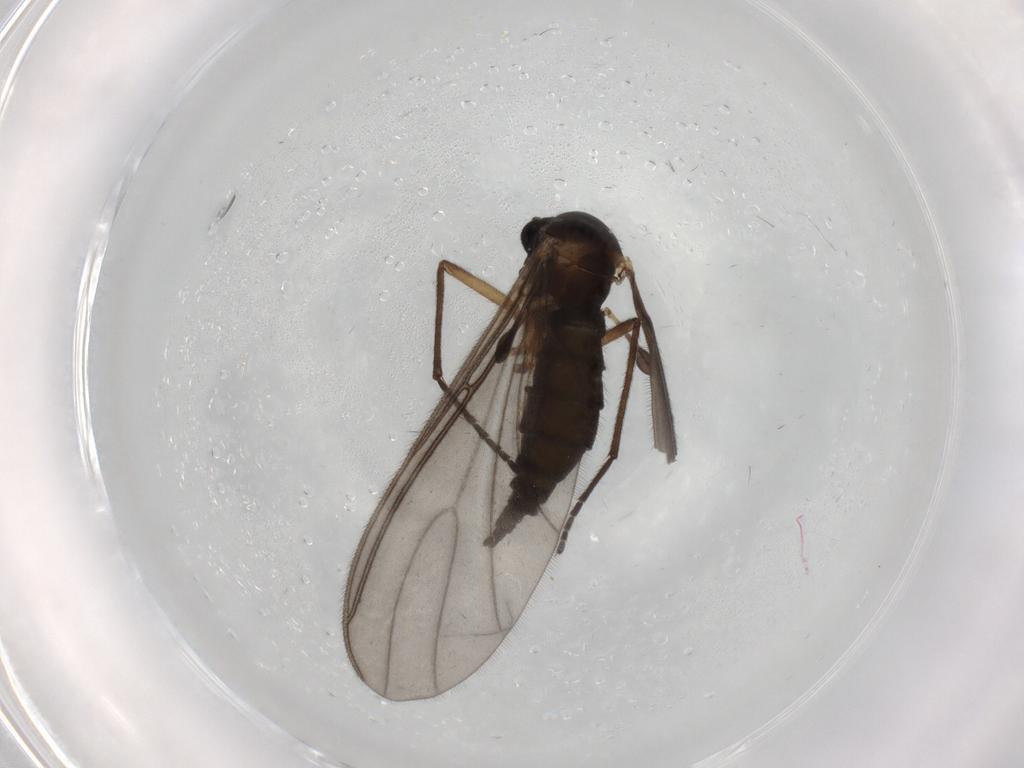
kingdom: Animalia
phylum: Arthropoda
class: Insecta
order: Diptera
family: Sciaridae
